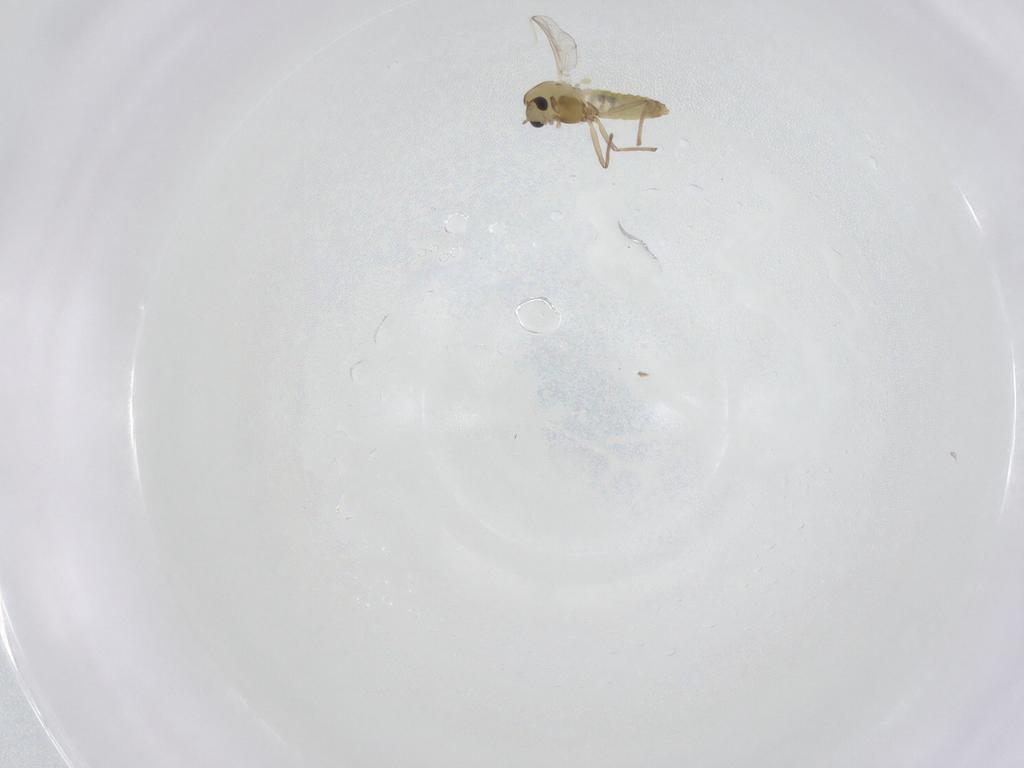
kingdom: Animalia
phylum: Arthropoda
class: Insecta
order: Diptera
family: Chironomidae
